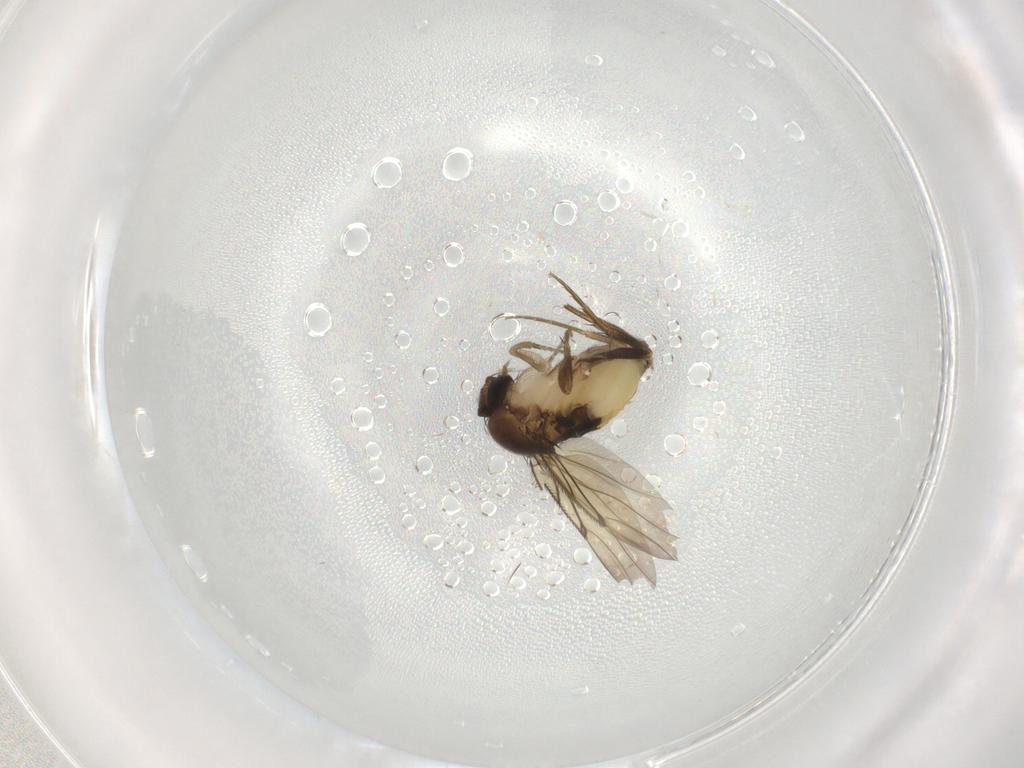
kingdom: Animalia
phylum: Arthropoda
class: Insecta
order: Diptera
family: Phoridae
